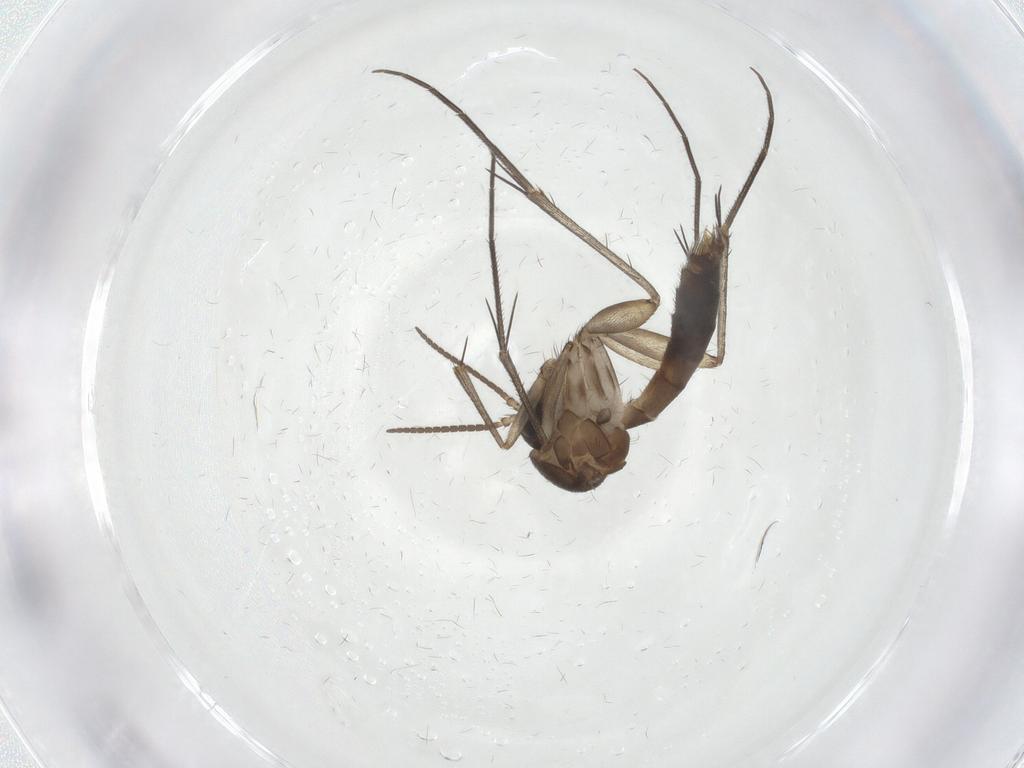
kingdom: Animalia
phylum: Arthropoda
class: Insecta
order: Diptera
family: Mycetophilidae
